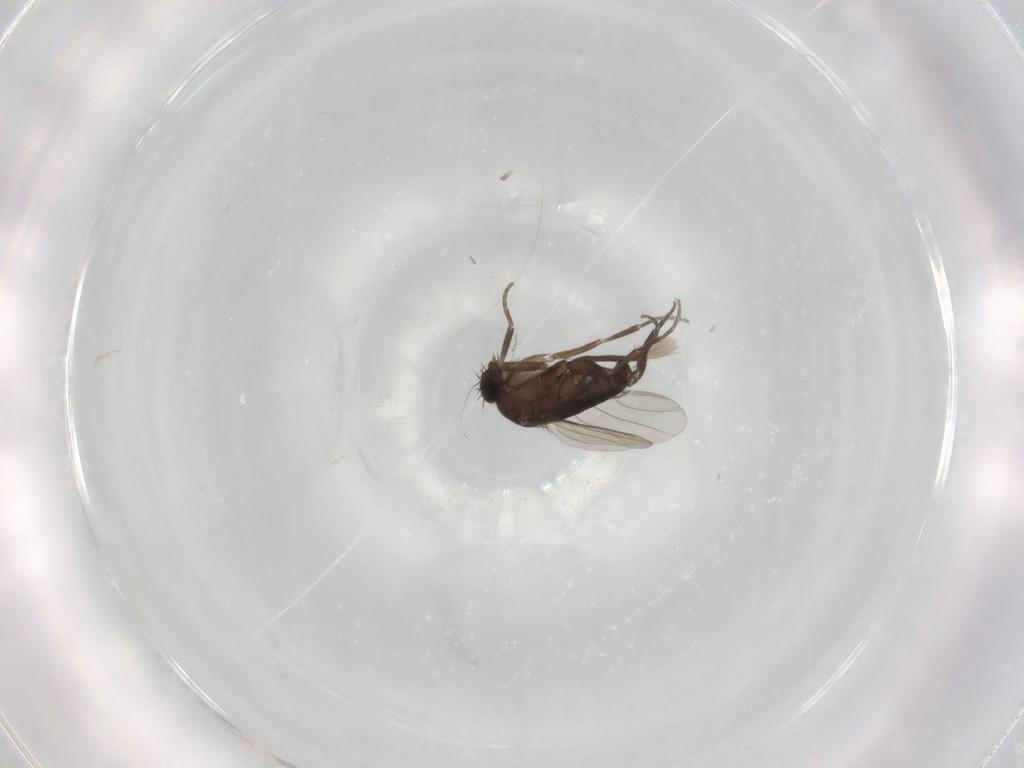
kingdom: Animalia
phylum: Arthropoda
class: Insecta
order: Diptera
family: Phoridae
